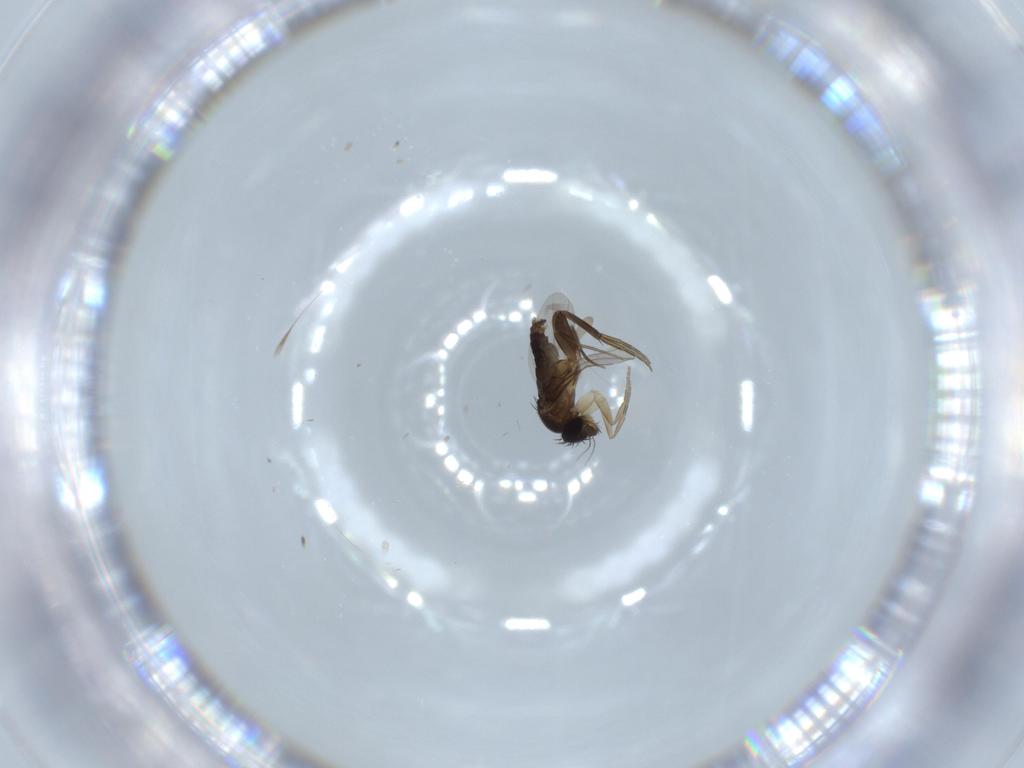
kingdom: Animalia
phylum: Arthropoda
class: Insecta
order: Diptera
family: Phoridae
